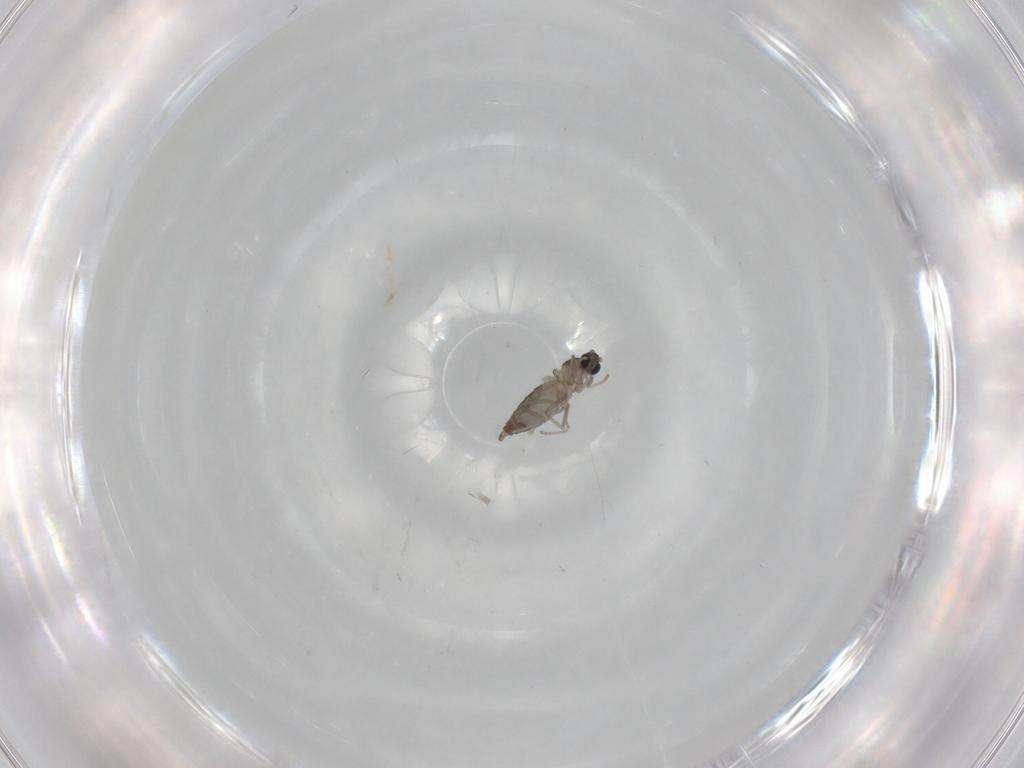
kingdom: Animalia
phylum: Arthropoda
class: Insecta
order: Diptera
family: Cecidomyiidae
